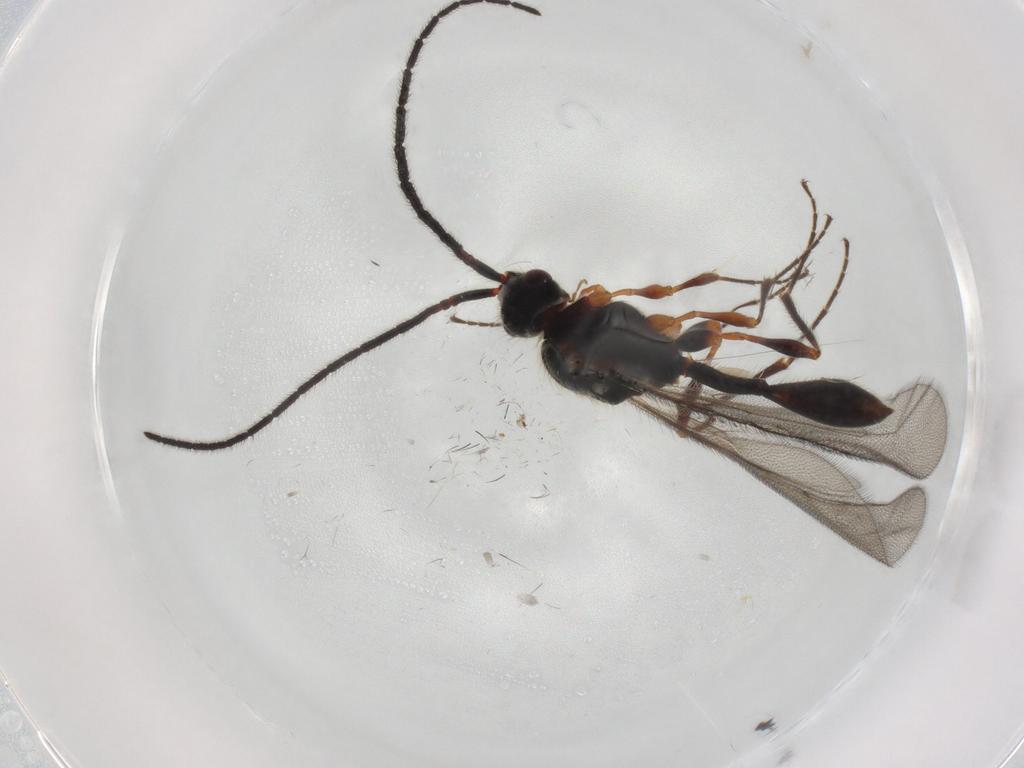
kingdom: Animalia
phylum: Arthropoda
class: Insecta
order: Hymenoptera
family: Diapriidae
